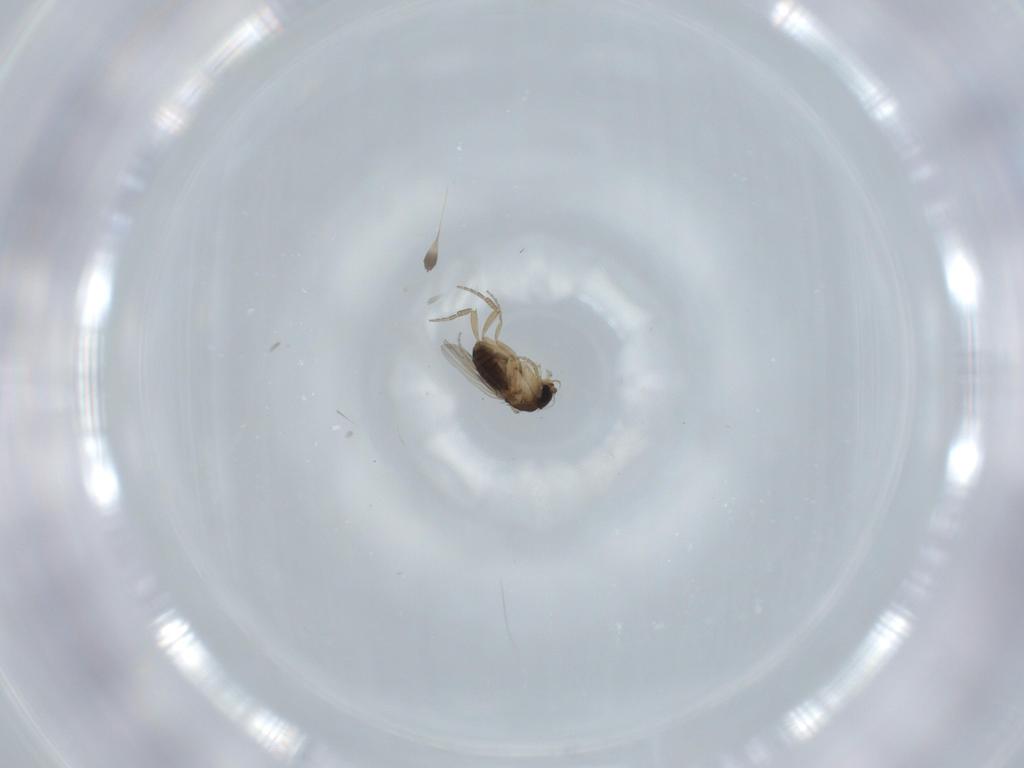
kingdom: Animalia
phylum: Arthropoda
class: Insecta
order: Diptera
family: Phoridae
